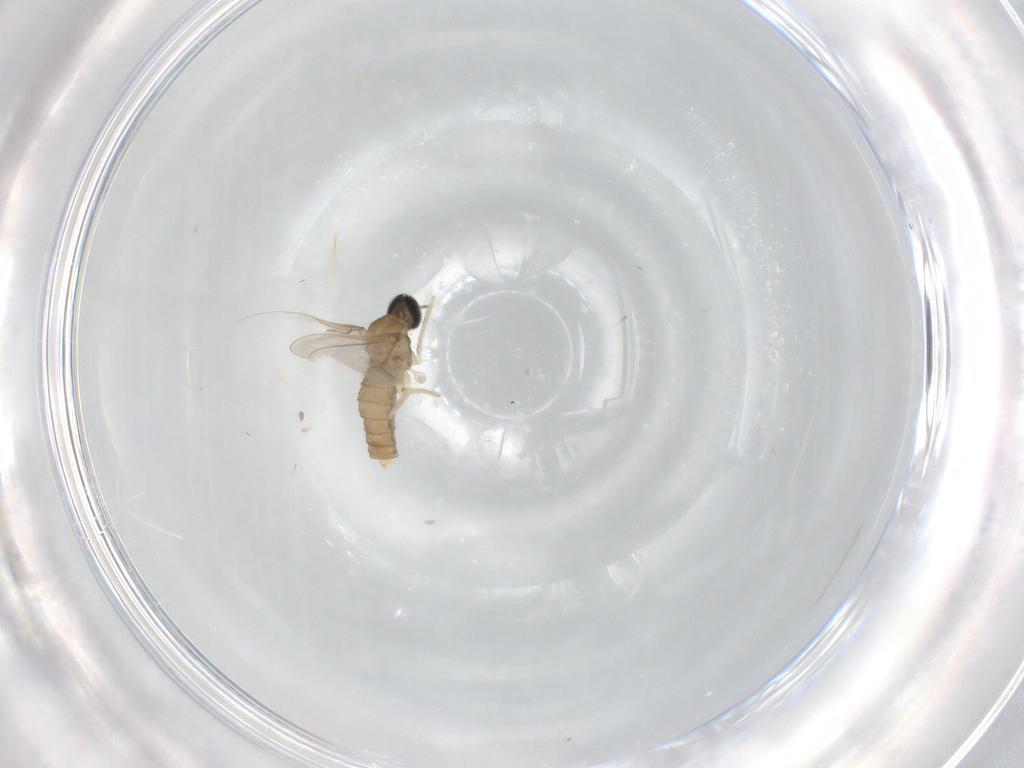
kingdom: Animalia
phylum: Arthropoda
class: Insecta
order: Diptera
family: Cecidomyiidae
